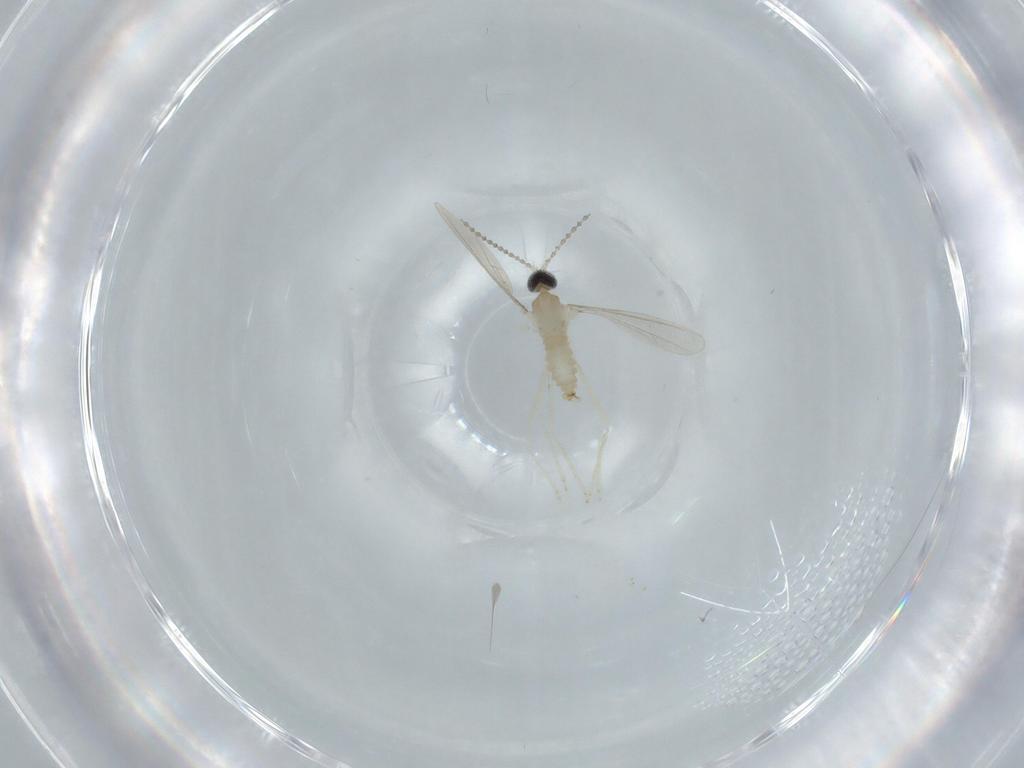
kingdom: Animalia
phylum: Arthropoda
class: Insecta
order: Diptera
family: Cecidomyiidae
